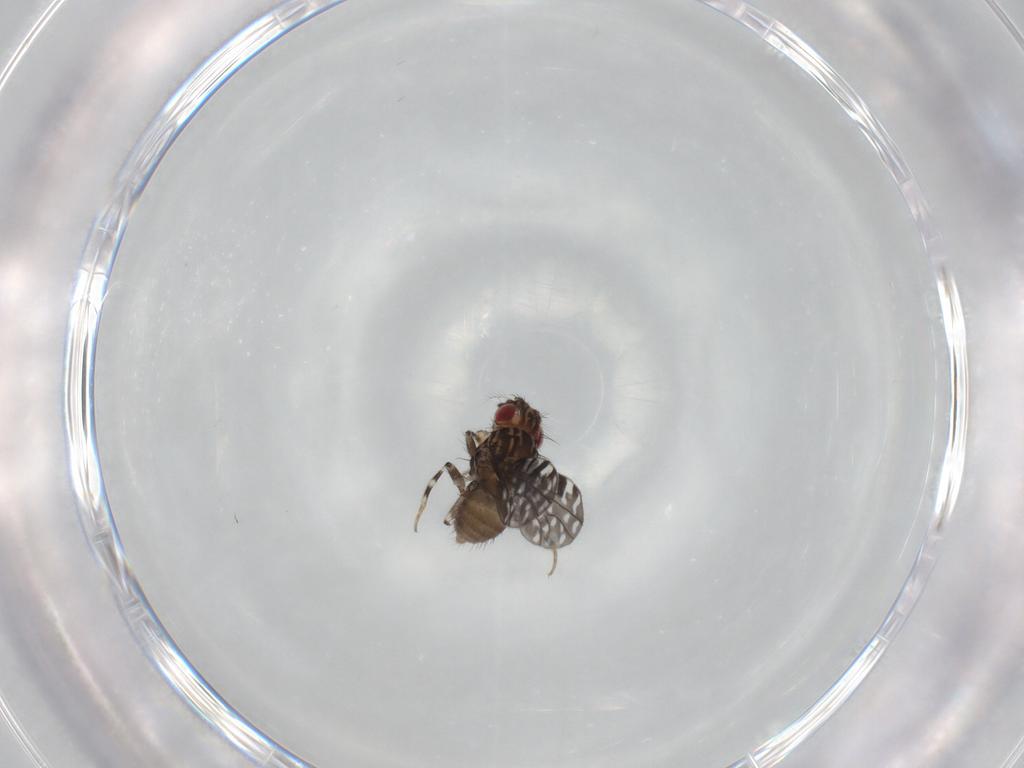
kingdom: Animalia
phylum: Arthropoda
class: Insecta
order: Diptera
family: Drosophilidae
